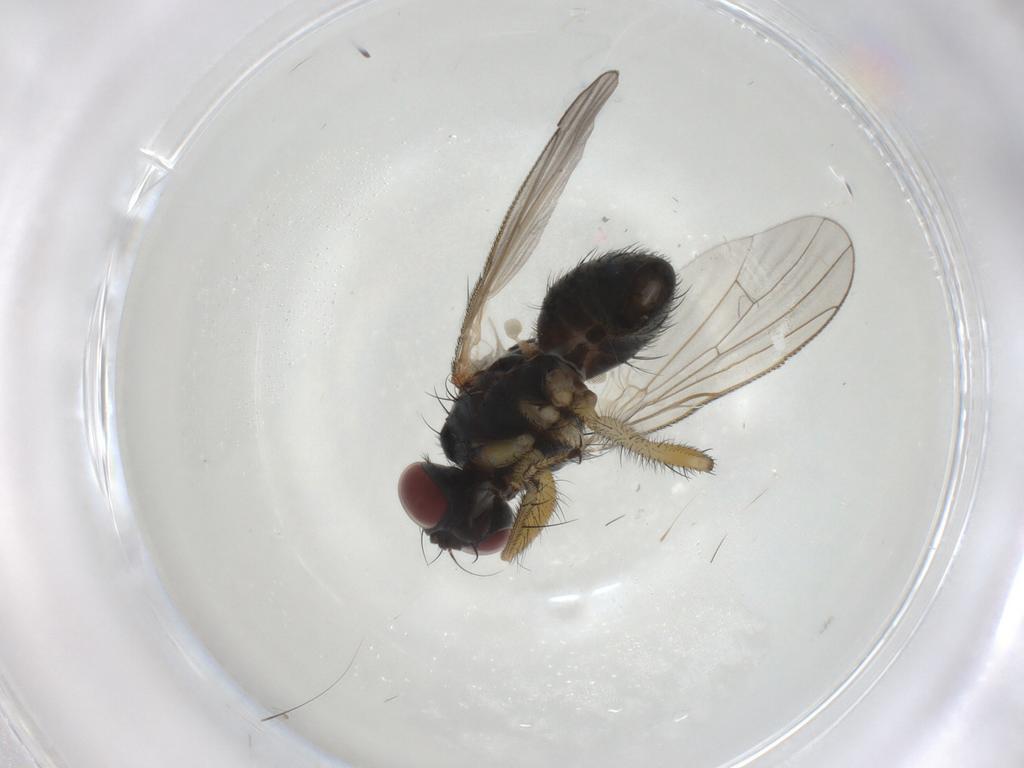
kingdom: Animalia
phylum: Arthropoda
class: Insecta
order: Diptera
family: Muscidae
